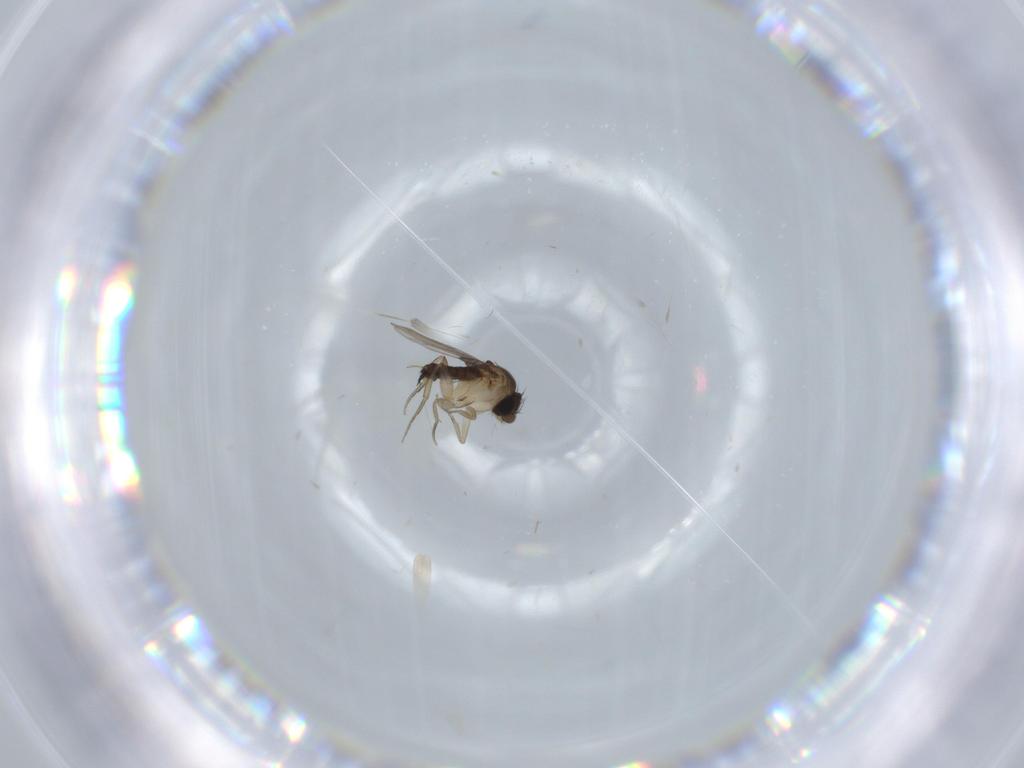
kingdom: Animalia
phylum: Arthropoda
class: Insecta
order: Diptera
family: Phoridae
